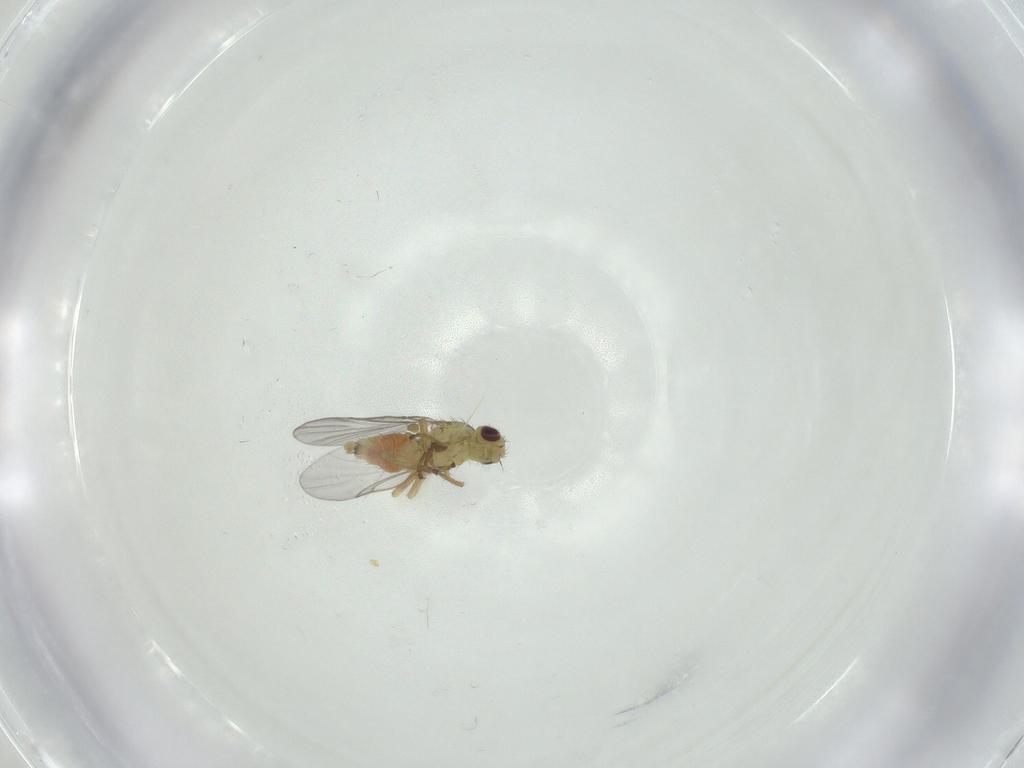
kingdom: Animalia
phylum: Arthropoda
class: Insecta
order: Diptera
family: Agromyzidae
